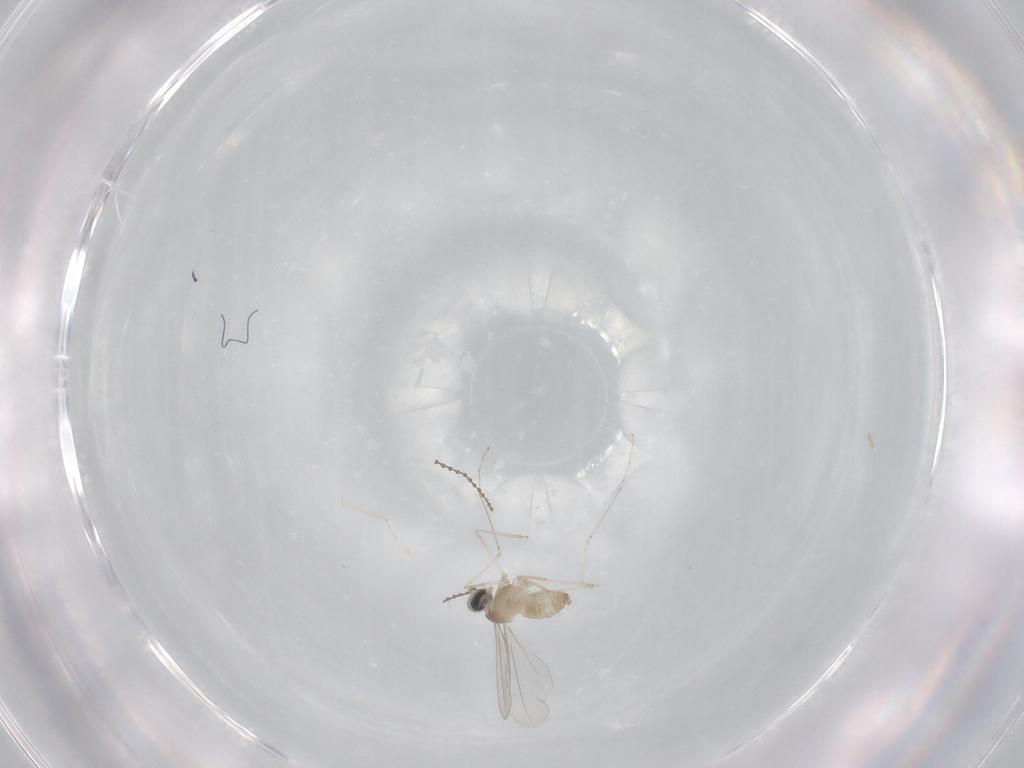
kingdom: Animalia
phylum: Arthropoda
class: Insecta
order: Diptera
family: Cecidomyiidae
